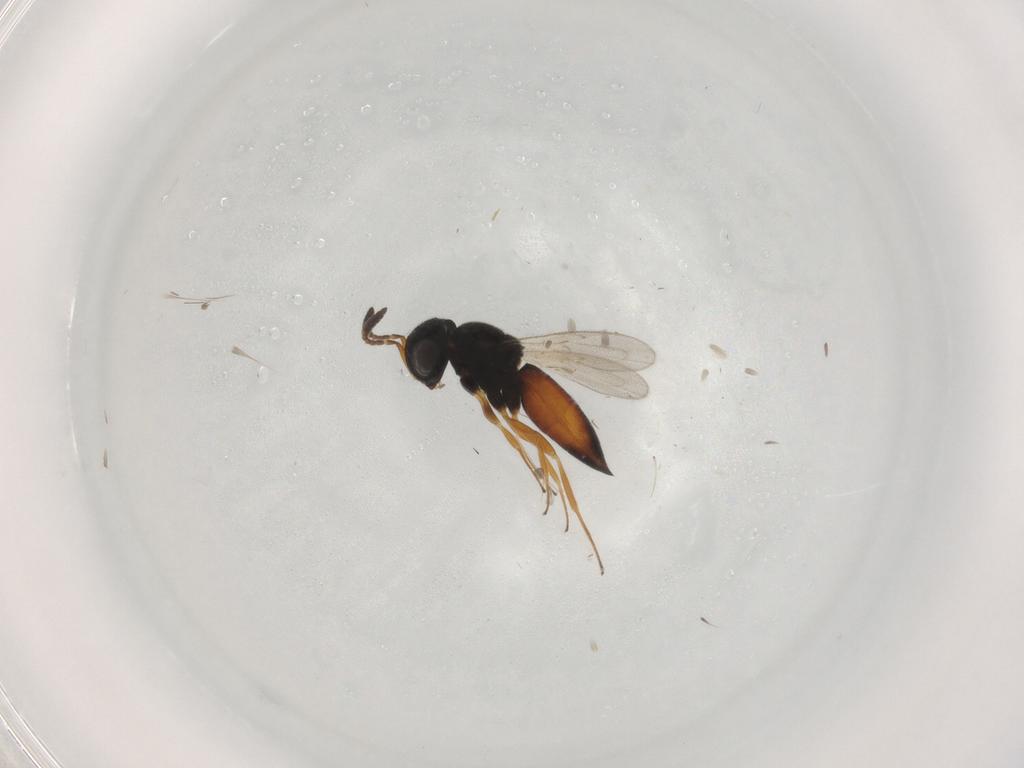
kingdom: Animalia
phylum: Arthropoda
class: Insecta
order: Hymenoptera
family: Scelionidae
